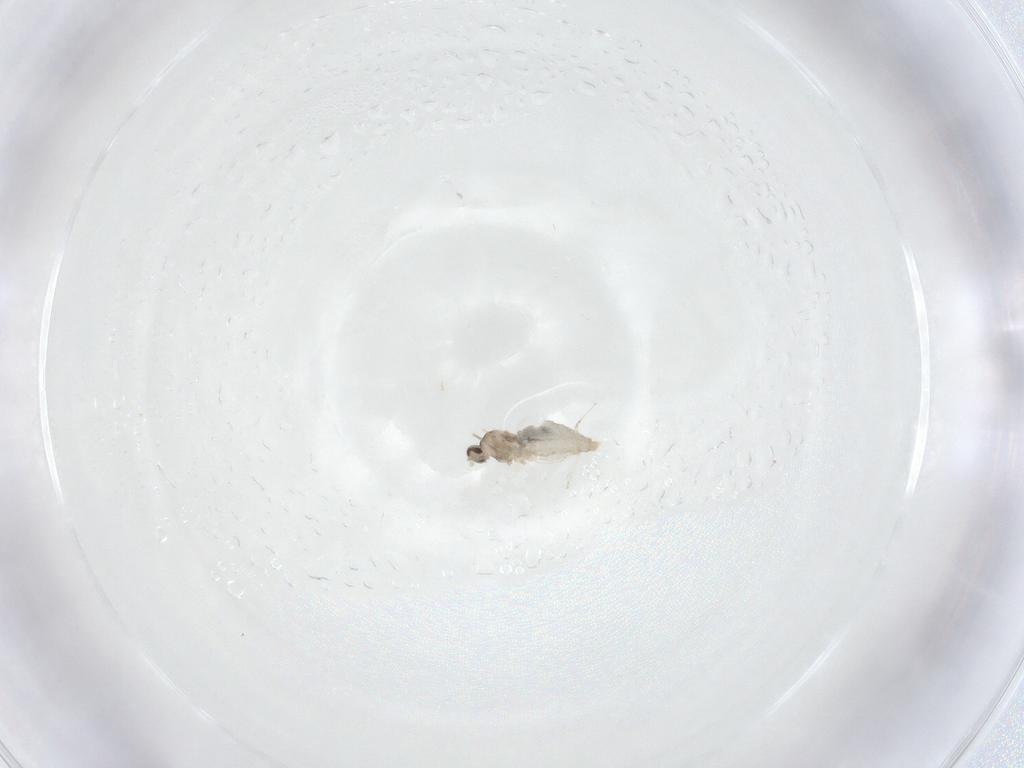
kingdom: Animalia
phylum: Arthropoda
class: Insecta
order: Diptera
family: Cecidomyiidae
